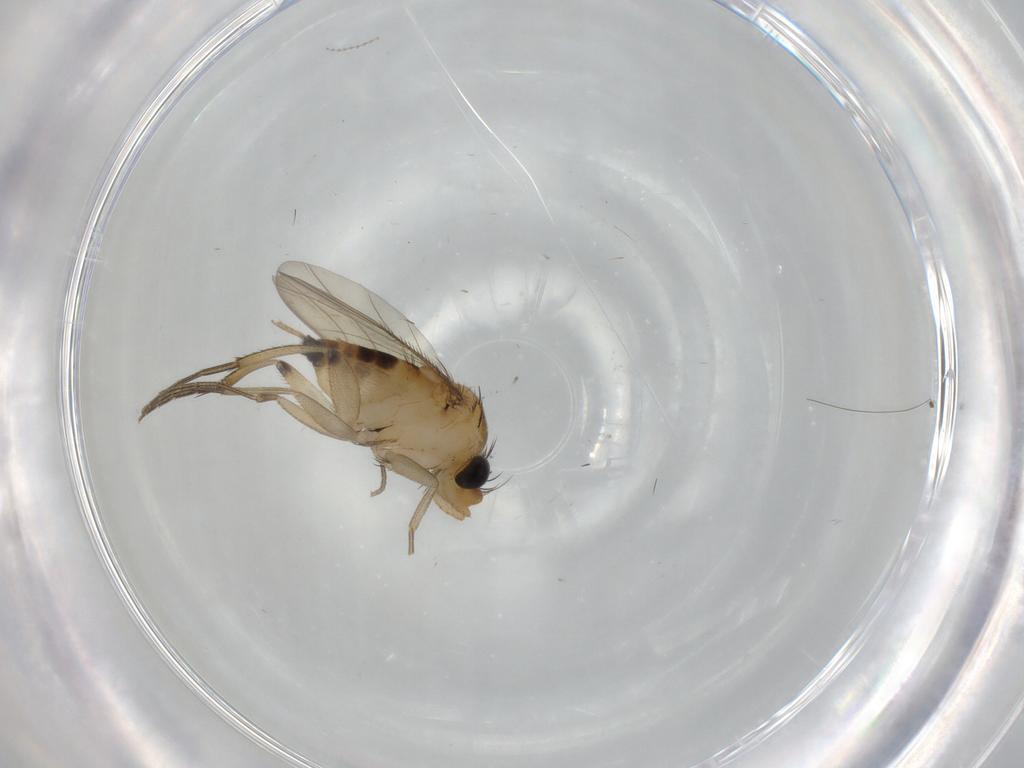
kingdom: Animalia
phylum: Arthropoda
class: Insecta
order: Diptera
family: Phoridae
